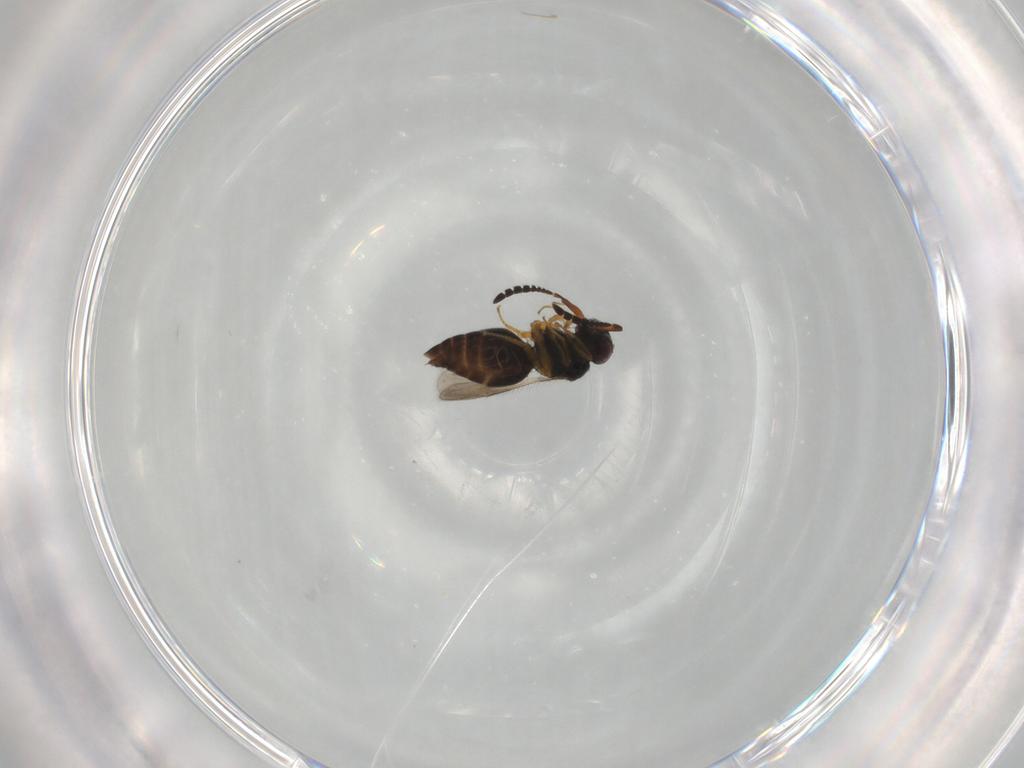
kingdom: Animalia
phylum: Arthropoda
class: Insecta
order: Hymenoptera
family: Ceraphronidae
